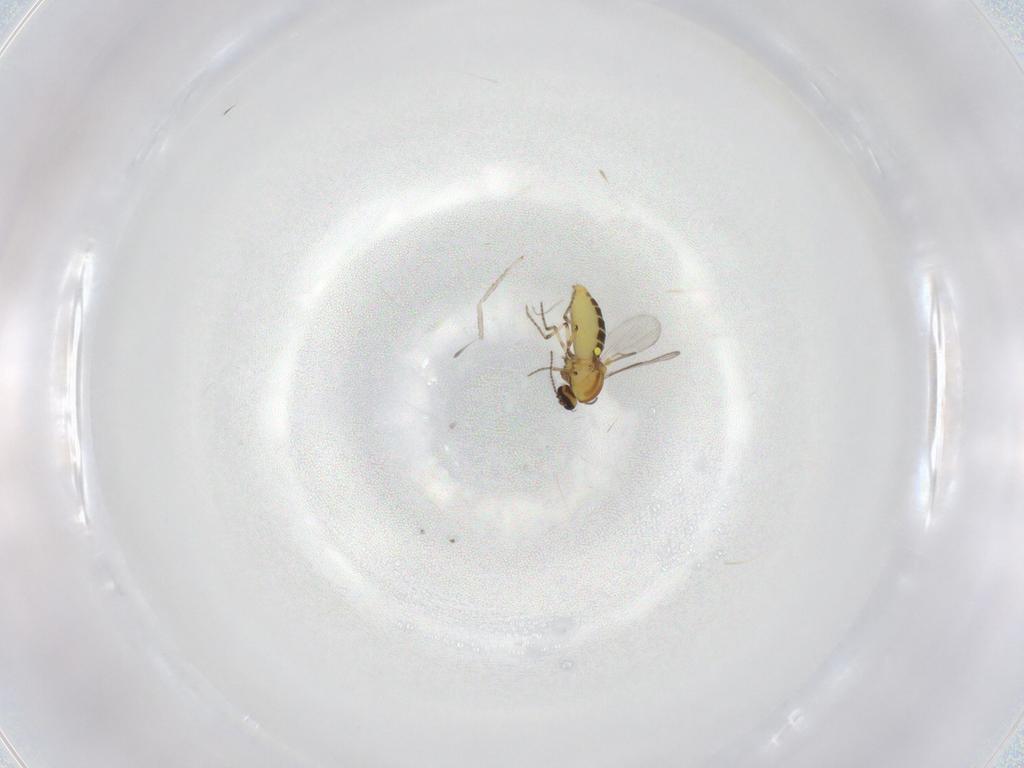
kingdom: Animalia
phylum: Arthropoda
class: Insecta
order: Diptera
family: Ceratopogonidae
